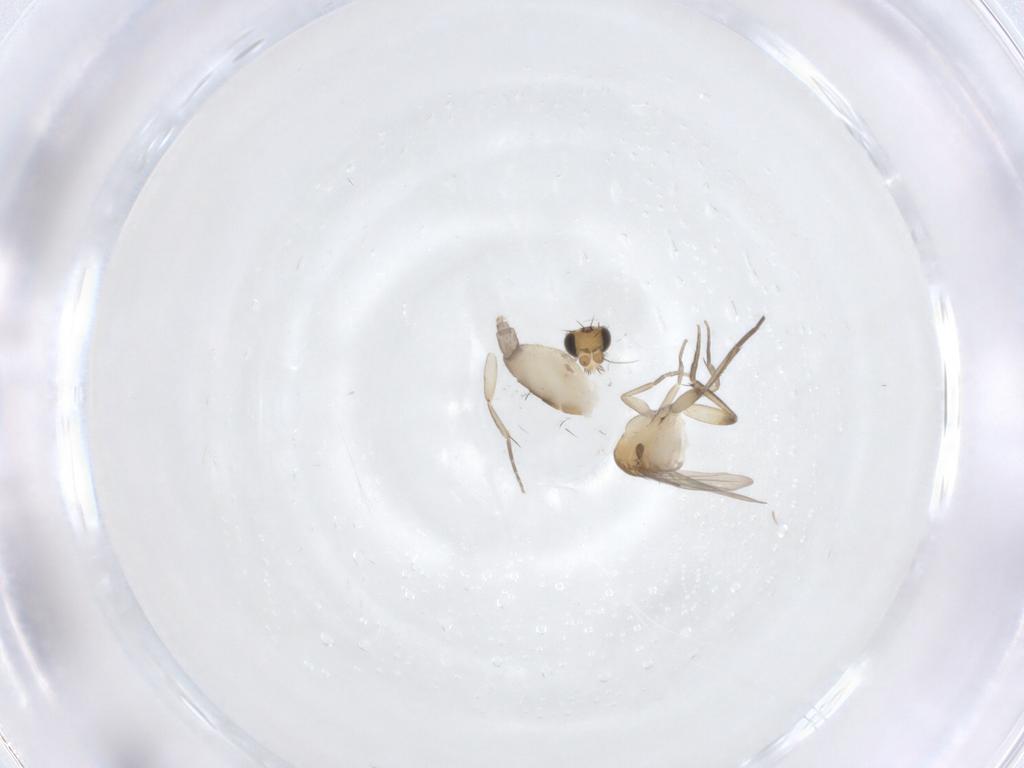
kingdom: Animalia
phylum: Arthropoda
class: Insecta
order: Diptera
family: Phoridae
